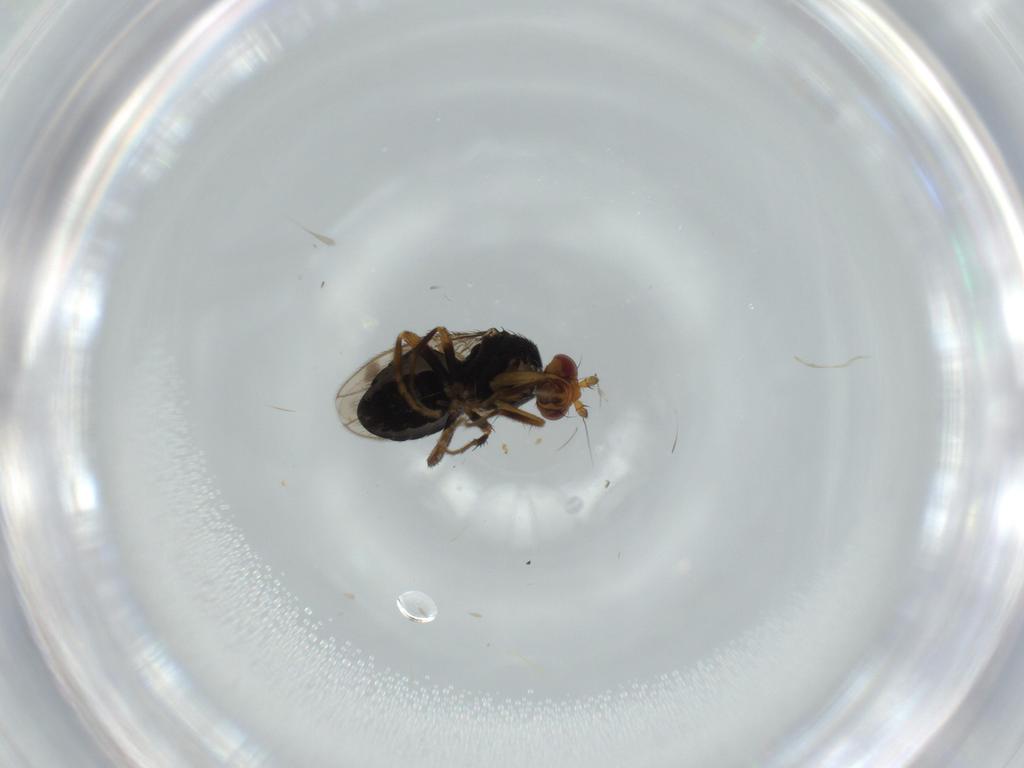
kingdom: Animalia
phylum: Arthropoda
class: Insecta
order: Diptera
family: Sphaeroceridae
